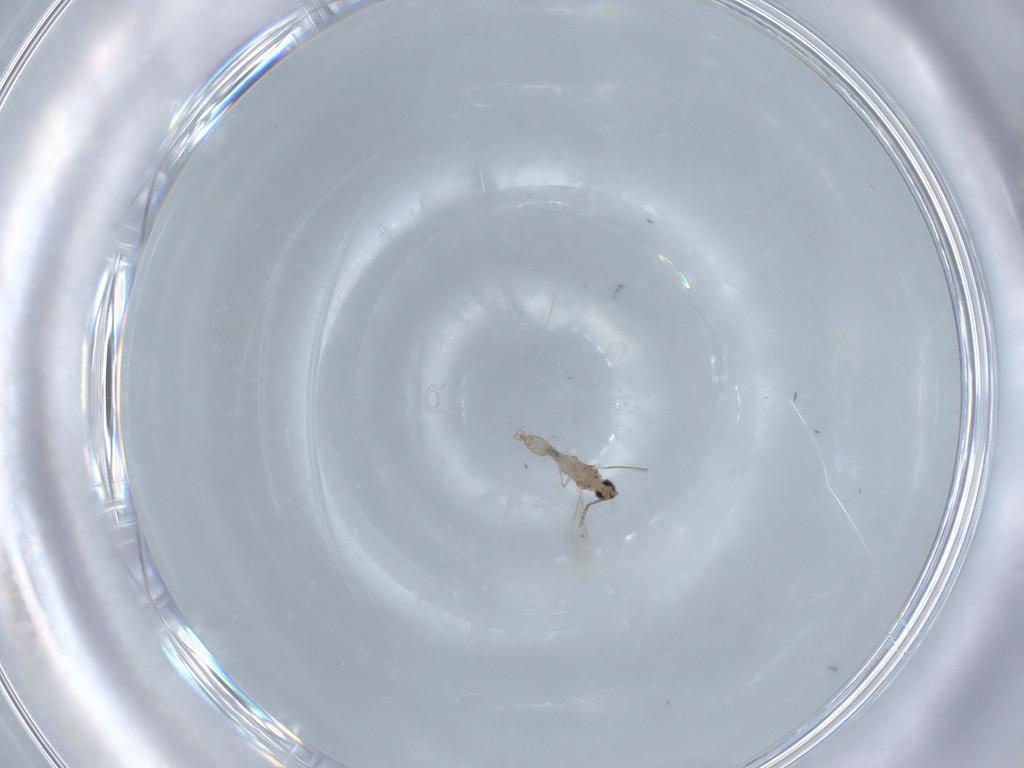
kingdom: Animalia
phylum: Arthropoda
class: Insecta
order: Diptera
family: Cecidomyiidae
